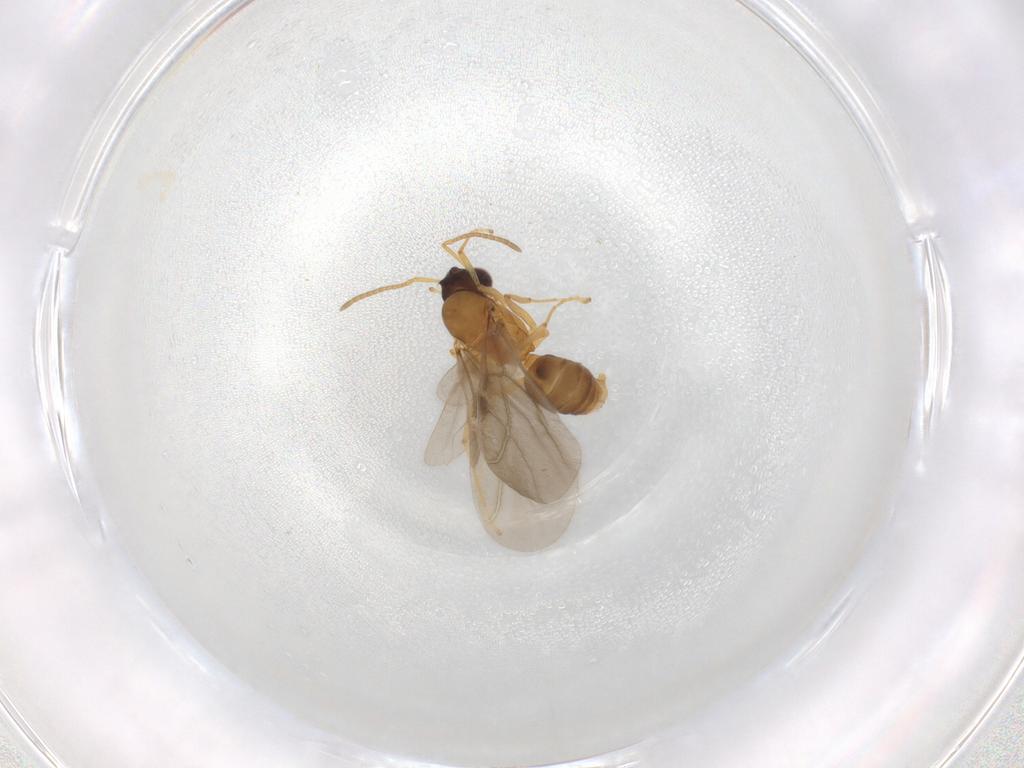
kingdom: Animalia
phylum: Arthropoda
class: Insecta
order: Hymenoptera
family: Formicidae
